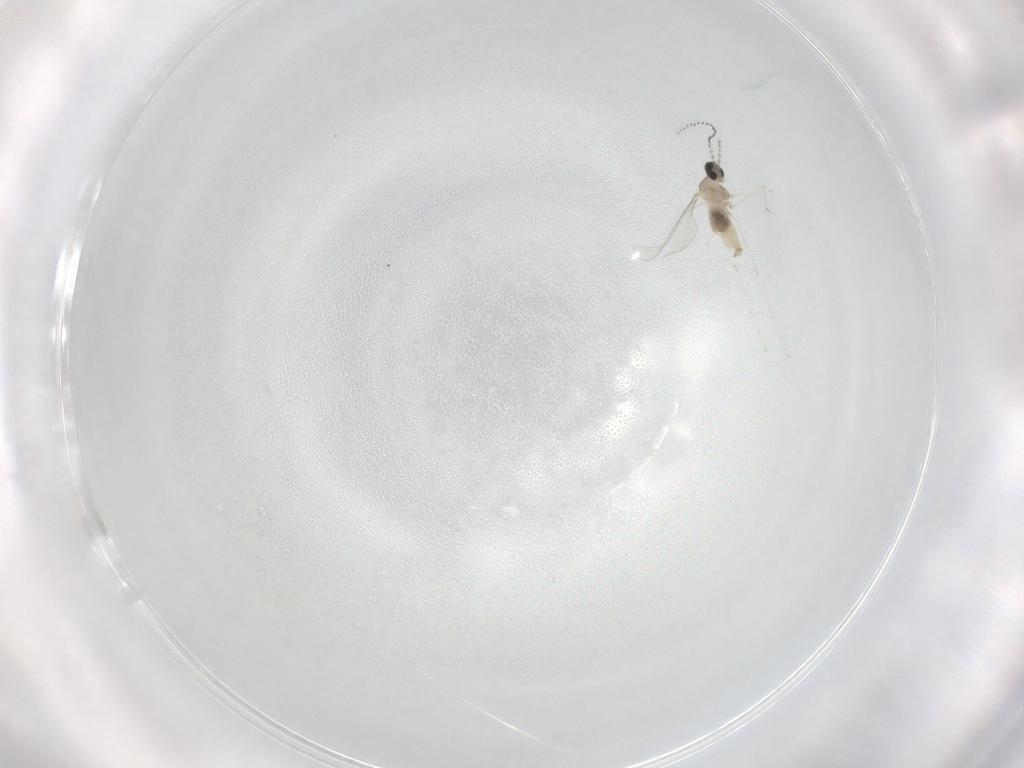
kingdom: Animalia
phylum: Arthropoda
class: Insecta
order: Diptera
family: Cecidomyiidae
